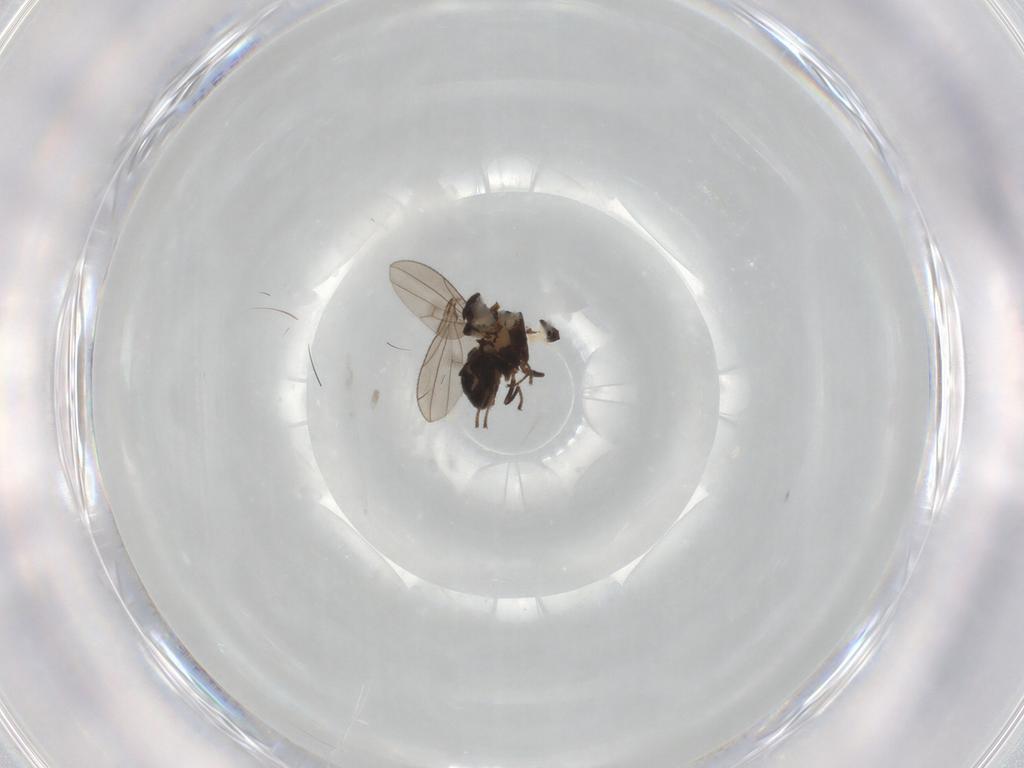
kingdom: Animalia
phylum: Arthropoda
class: Insecta
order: Diptera
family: Ephydridae
